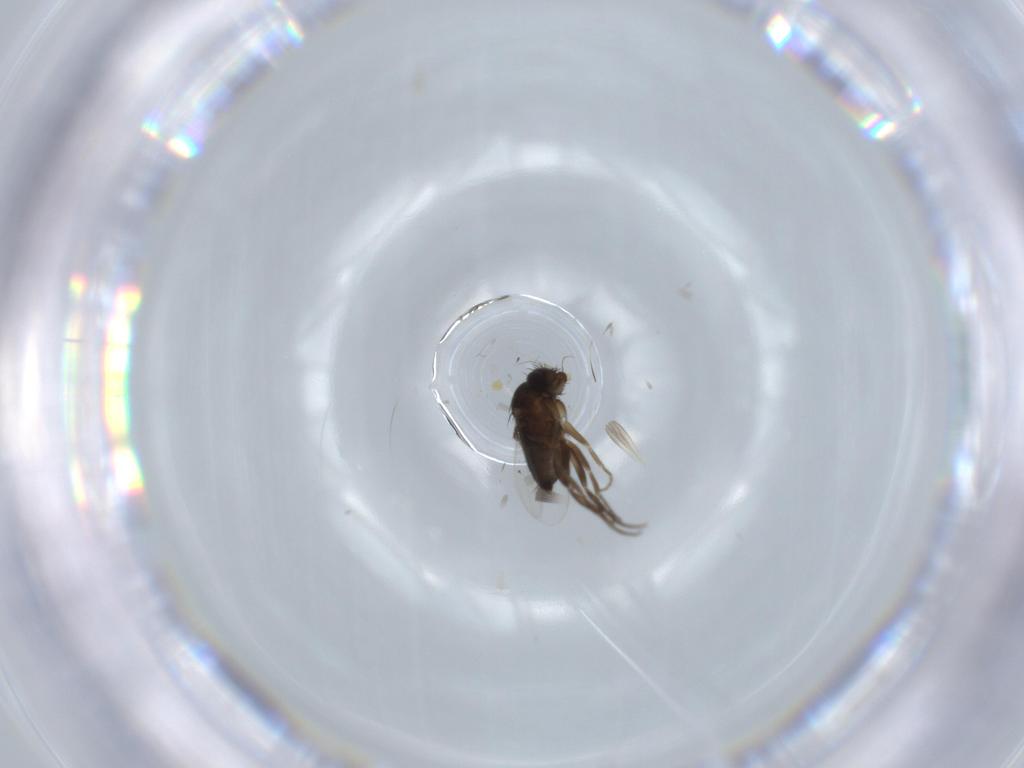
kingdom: Animalia
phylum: Arthropoda
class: Insecta
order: Diptera
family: Phoridae
